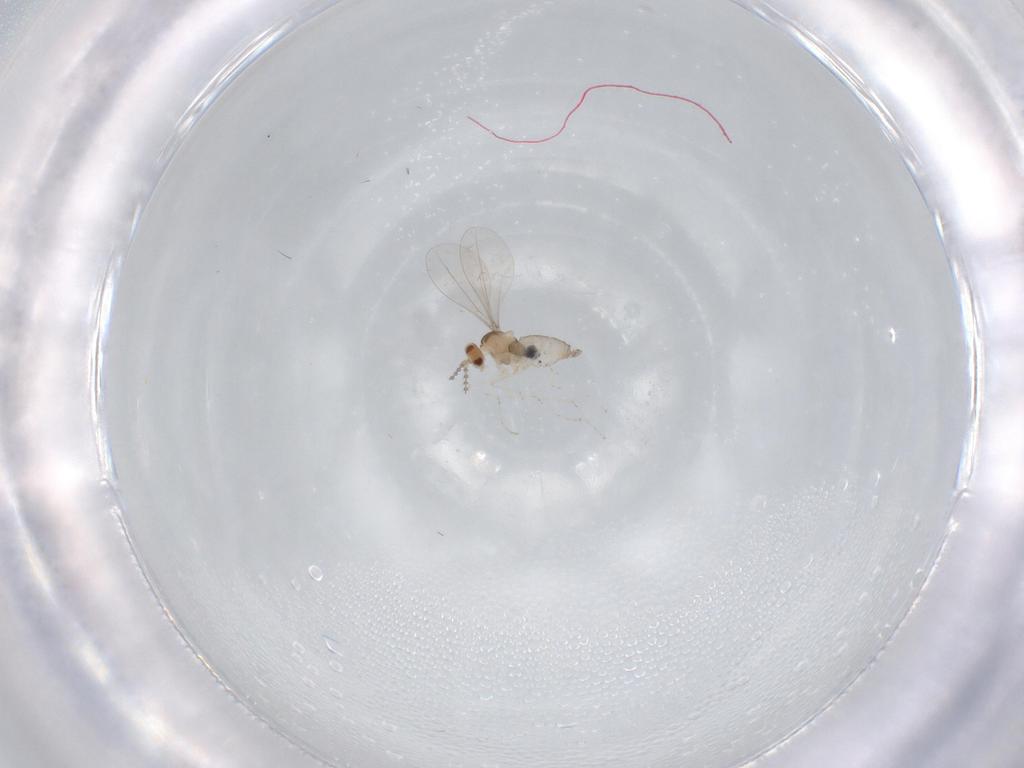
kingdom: Animalia
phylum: Arthropoda
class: Insecta
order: Diptera
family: Cecidomyiidae
